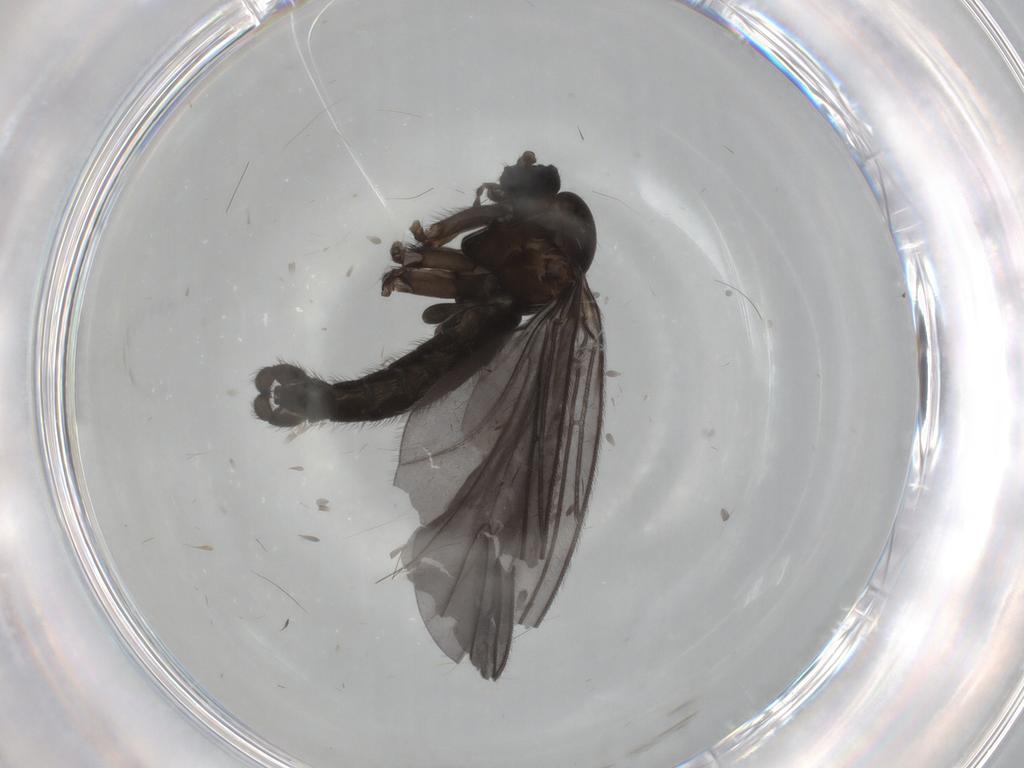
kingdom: Animalia
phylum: Arthropoda
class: Insecta
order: Diptera
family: Sciaridae
